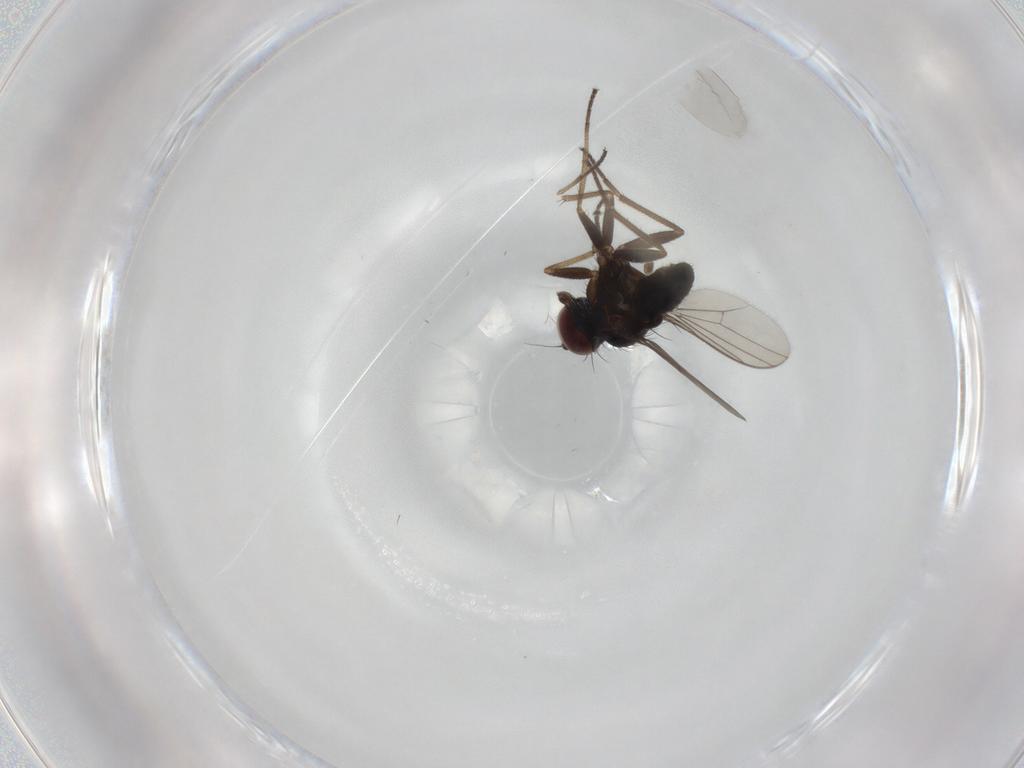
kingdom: Animalia
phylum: Arthropoda
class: Insecta
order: Diptera
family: Dolichopodidae
